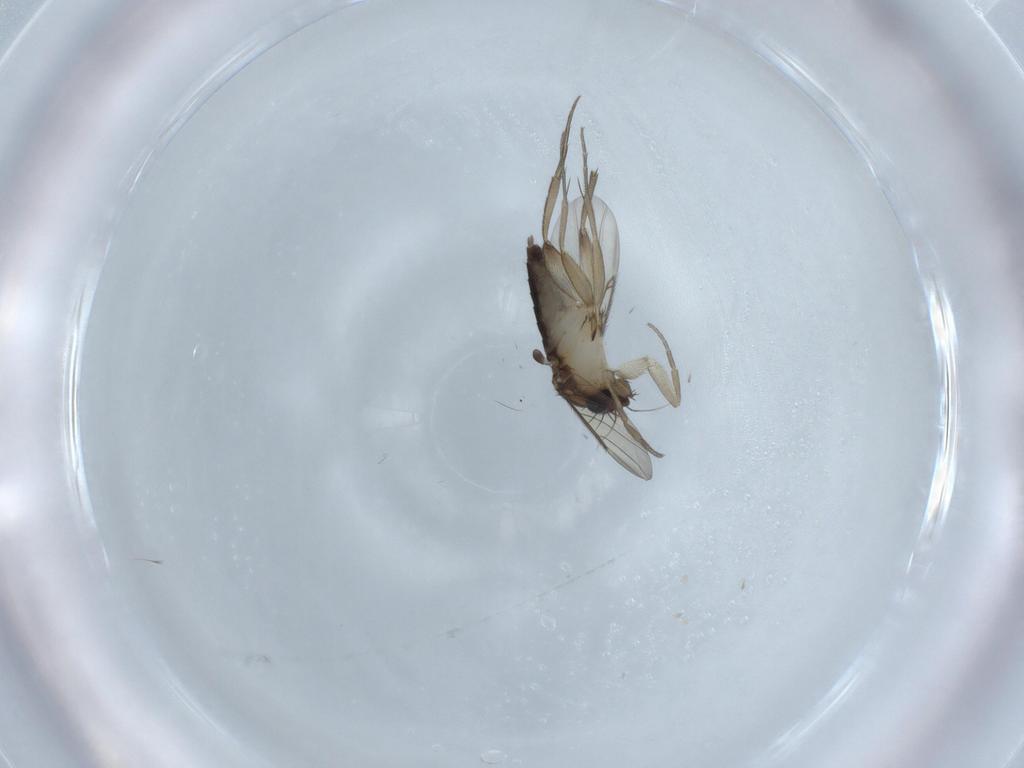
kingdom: Animalia
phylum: Arthropoda
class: Insecta
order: Diptera
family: Phoridae
